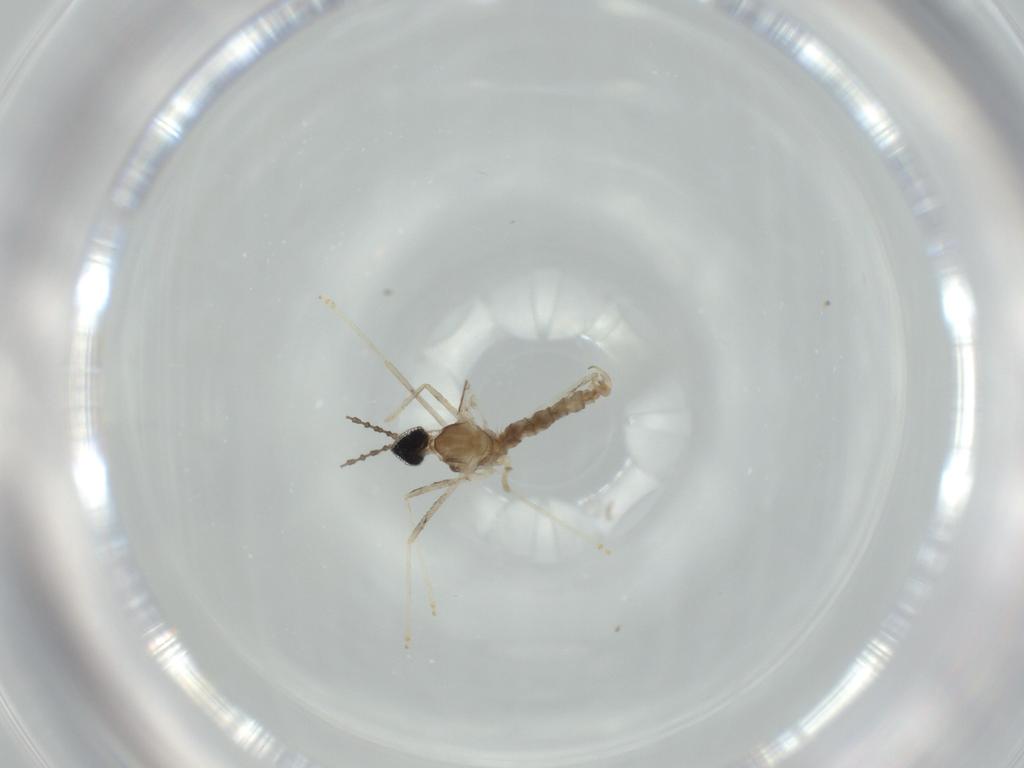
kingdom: Animalia
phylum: Arthropoda
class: Insecta
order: Diptera
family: Cecidomyiidae
